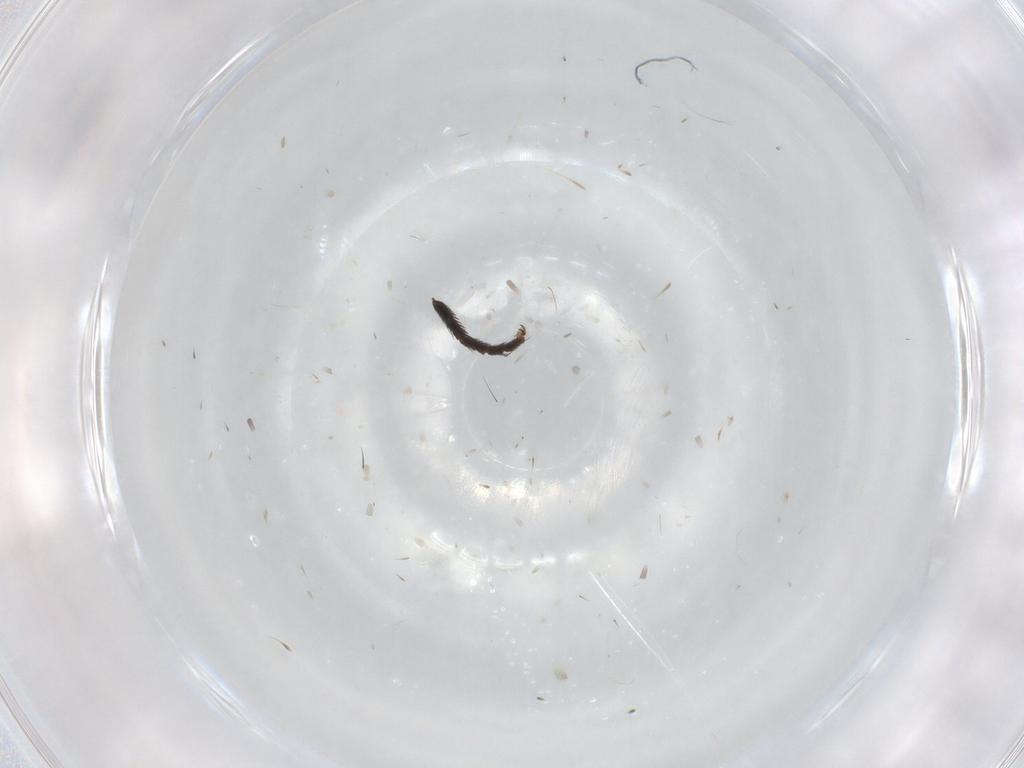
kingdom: Animalia
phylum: Arthropoda
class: Insecta
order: Hymenoptera
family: Scelionidae
